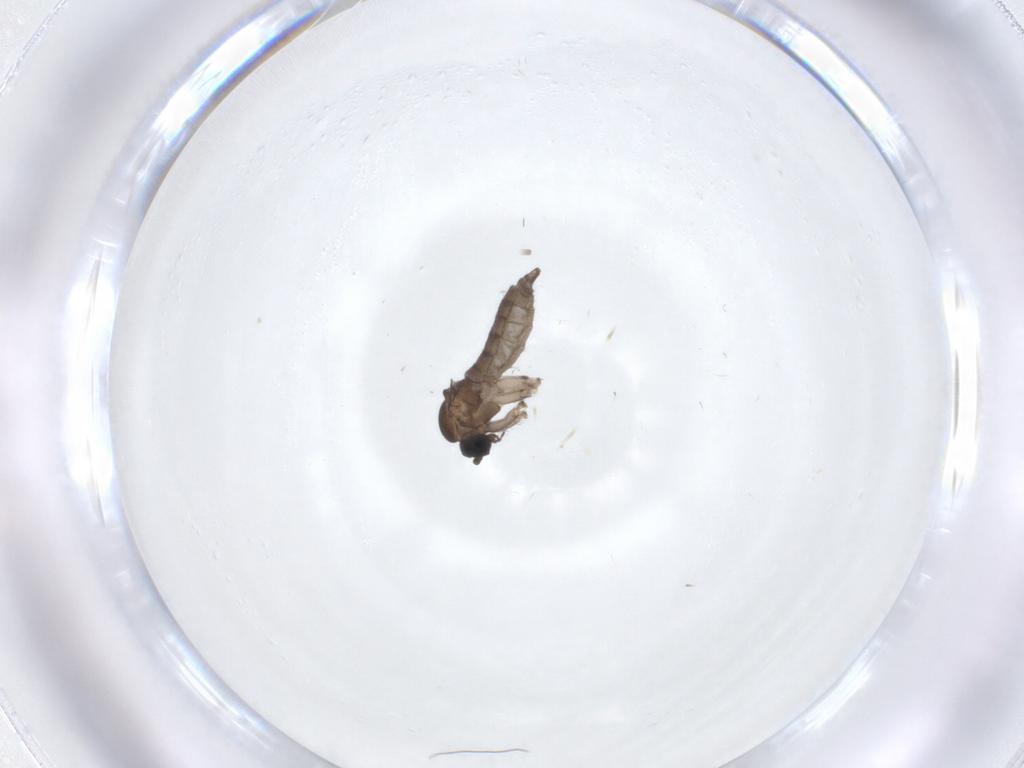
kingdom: Animalia
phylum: Arthropoda
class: Insecta
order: Diptera
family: Sciaridae
